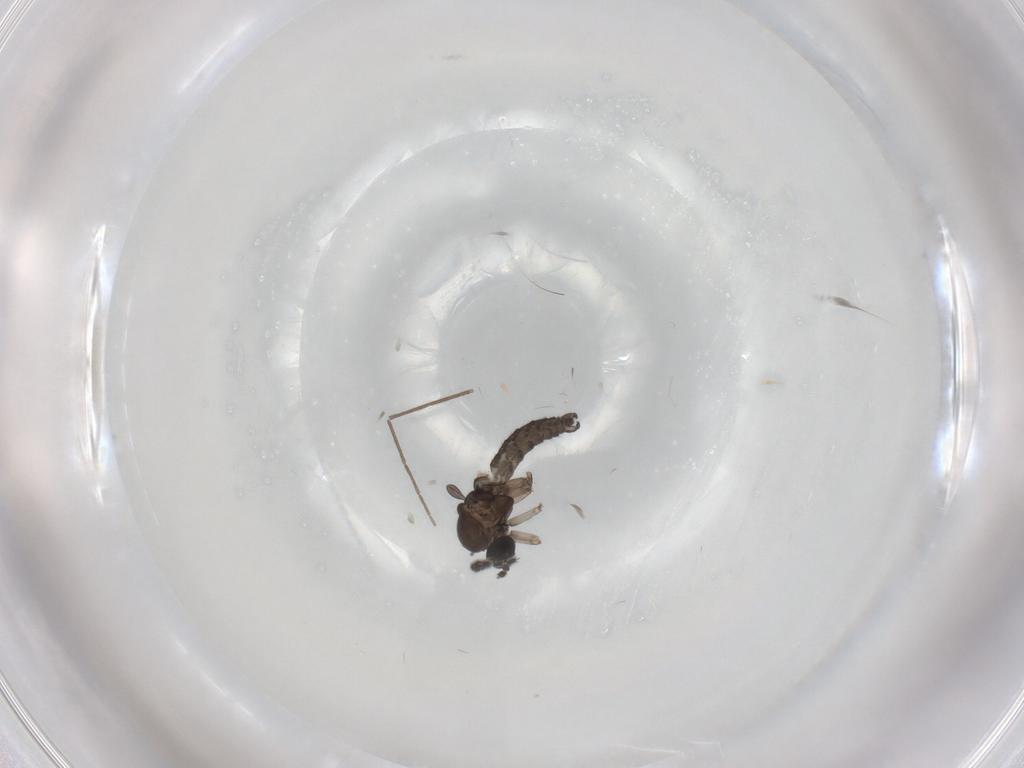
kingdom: Animalia
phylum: Arthropoda
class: Insecta
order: Diptera
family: Chironomidae
